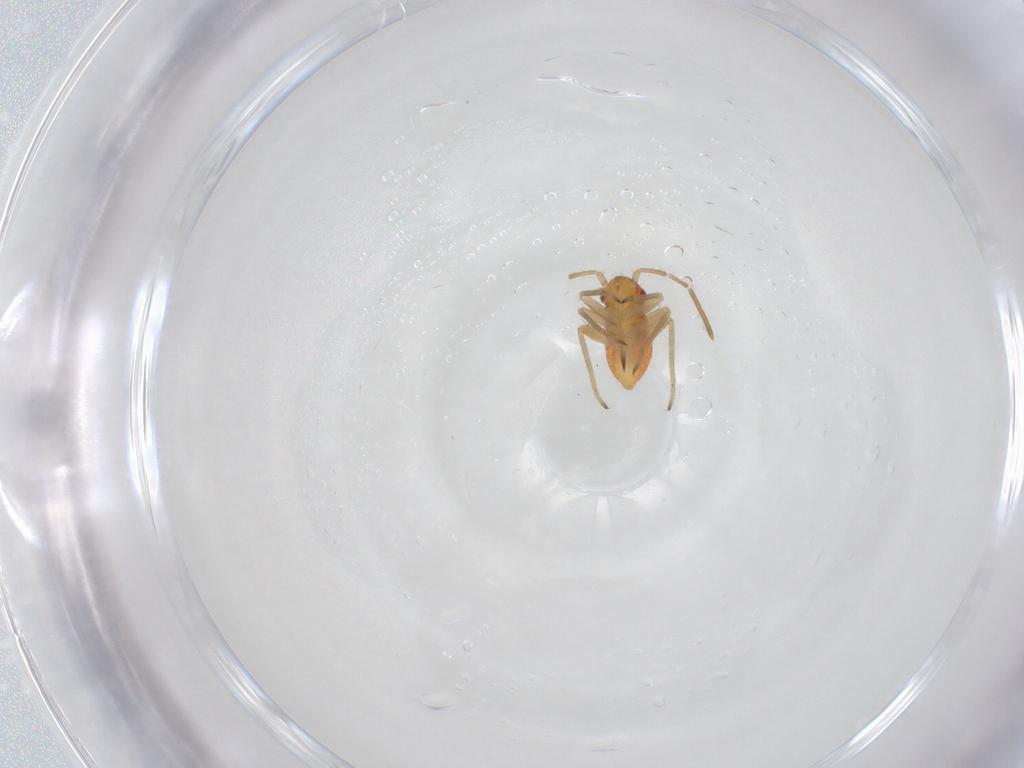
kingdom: Animalia
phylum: Arthropoda
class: Insecta
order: Hemiptera
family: Miridae
